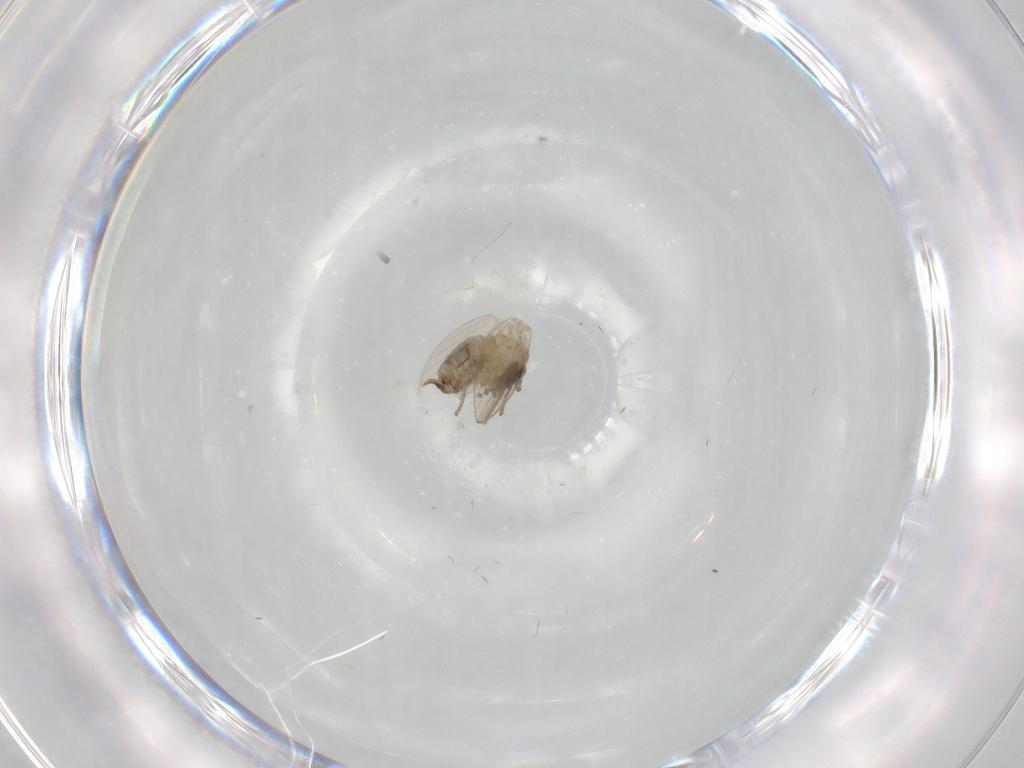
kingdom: Animalia
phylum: Arthropoda
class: Insecta
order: Diptera
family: Psychodidae
